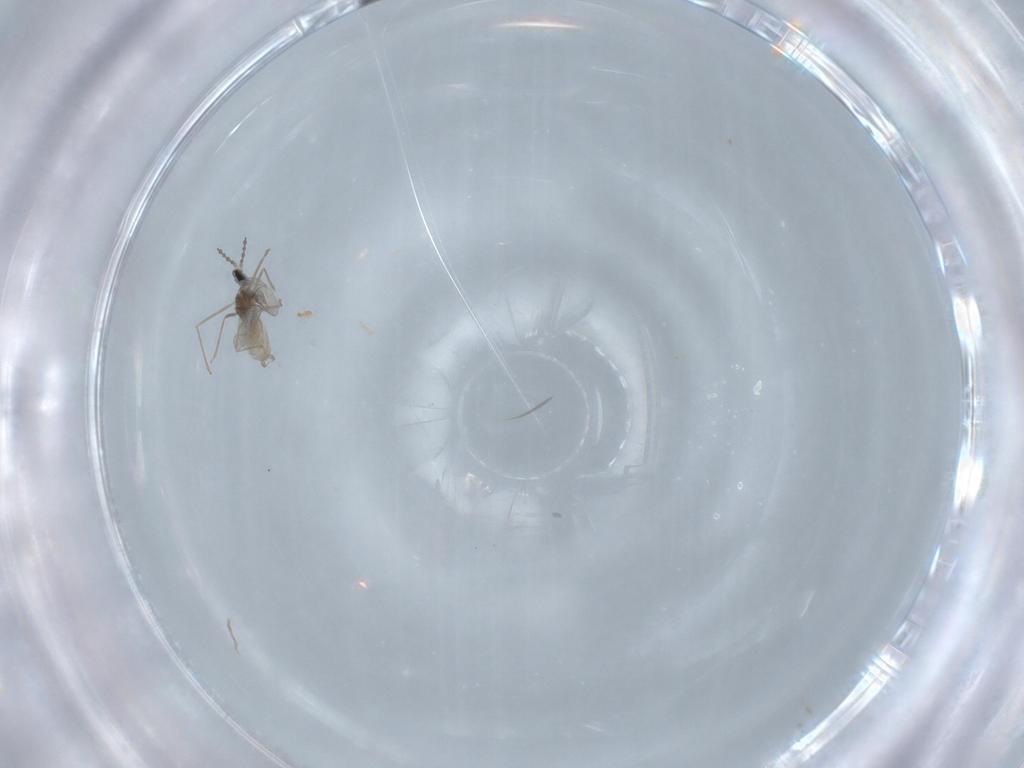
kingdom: Animalia
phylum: Arthropoda
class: Insecta
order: Diptera
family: Cecidomyiidae
